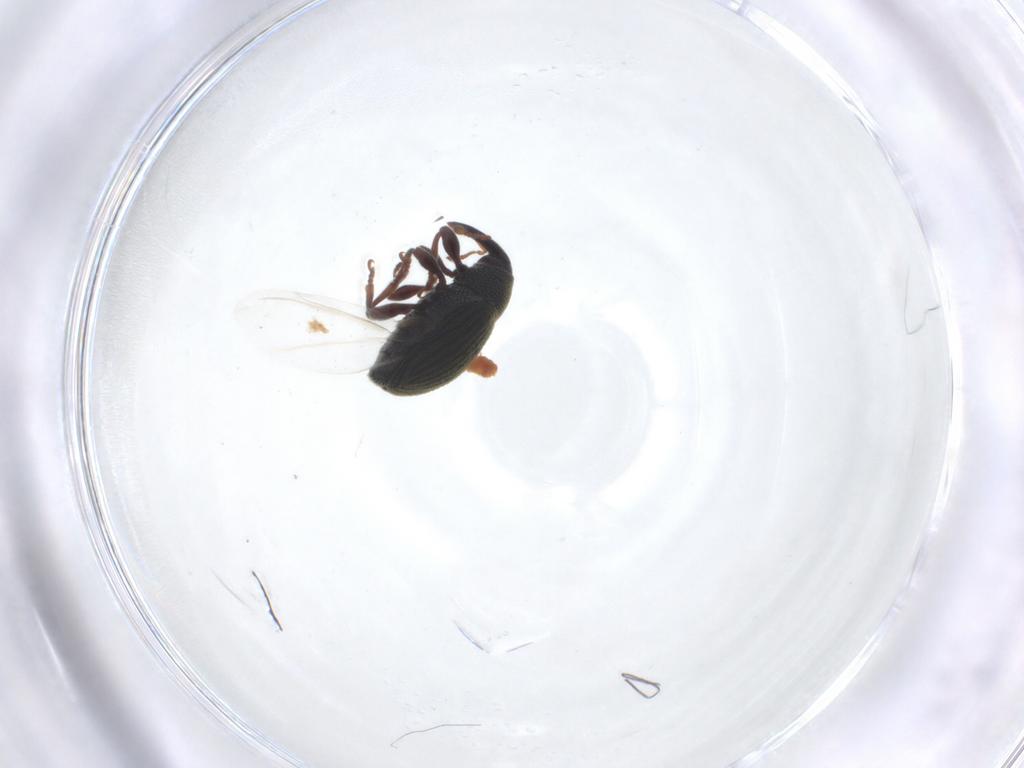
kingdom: Animalia
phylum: Arthropoda
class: Insecta
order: Coleoptera
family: Curculionidae
